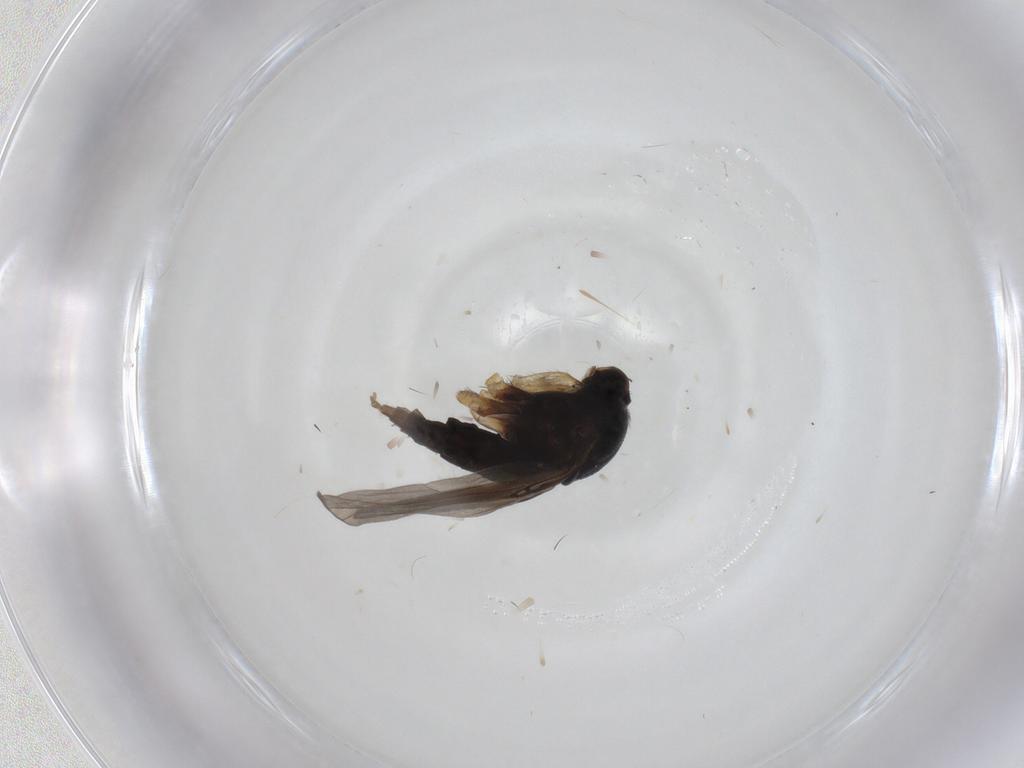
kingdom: Animalia
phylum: Arthropoda
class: Insecta
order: Diptera
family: Phoridae
